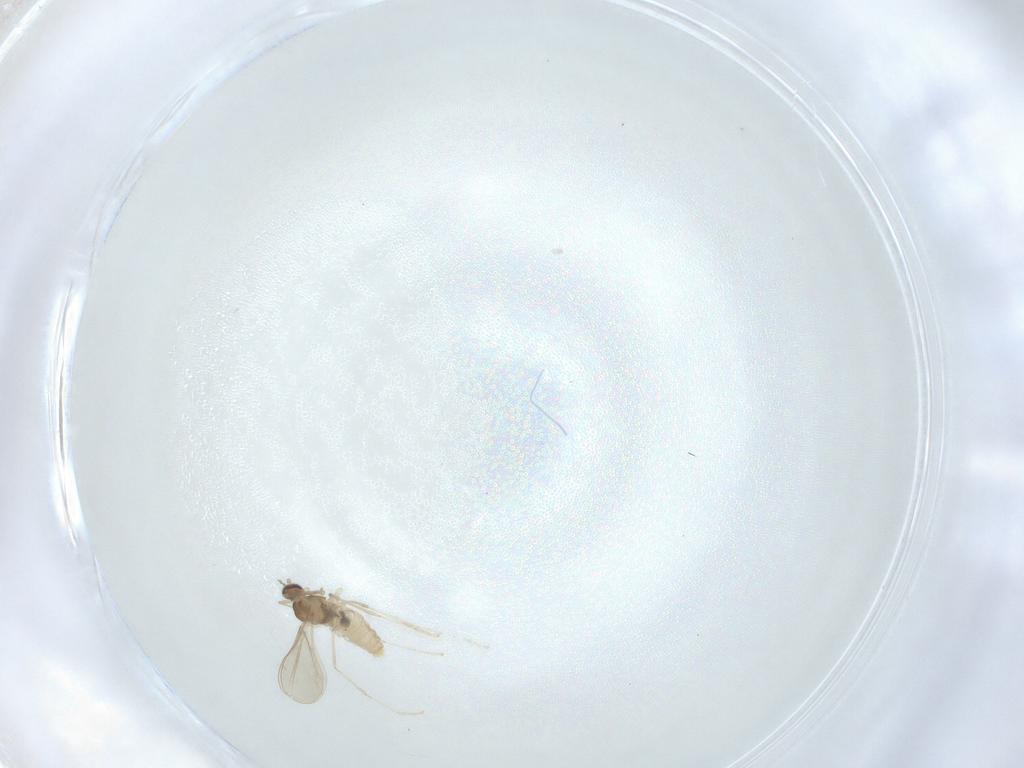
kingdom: Animalia
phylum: Arthropoda
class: Insecta
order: Diptera
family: Cecidomyiidae
